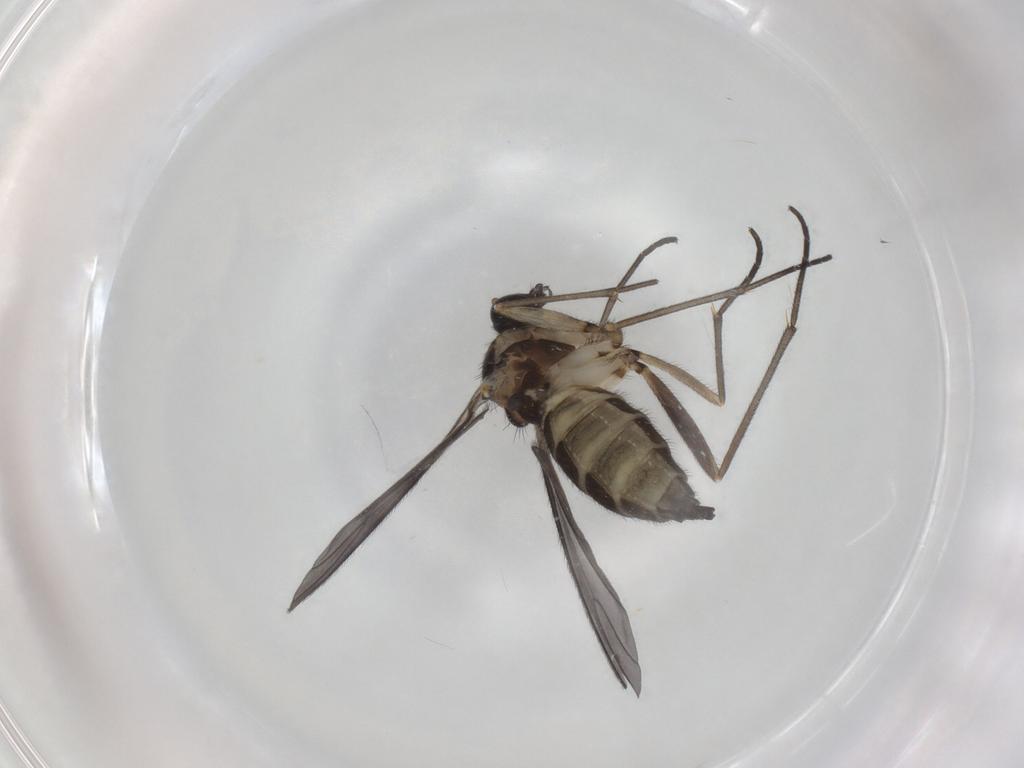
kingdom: Animalia
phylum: Arthropoda
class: Insecta
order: Diptera
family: Sciaridae
